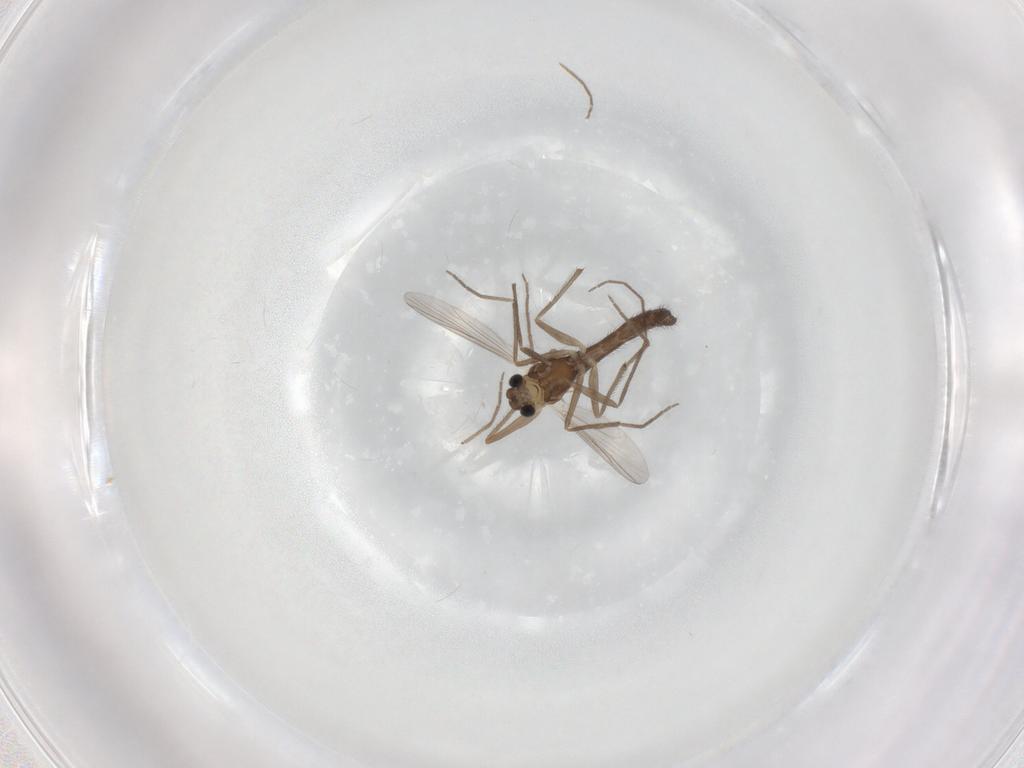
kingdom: Animalia
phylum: Arthropoda
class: Insecta
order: Diptera
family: Chironomidae
